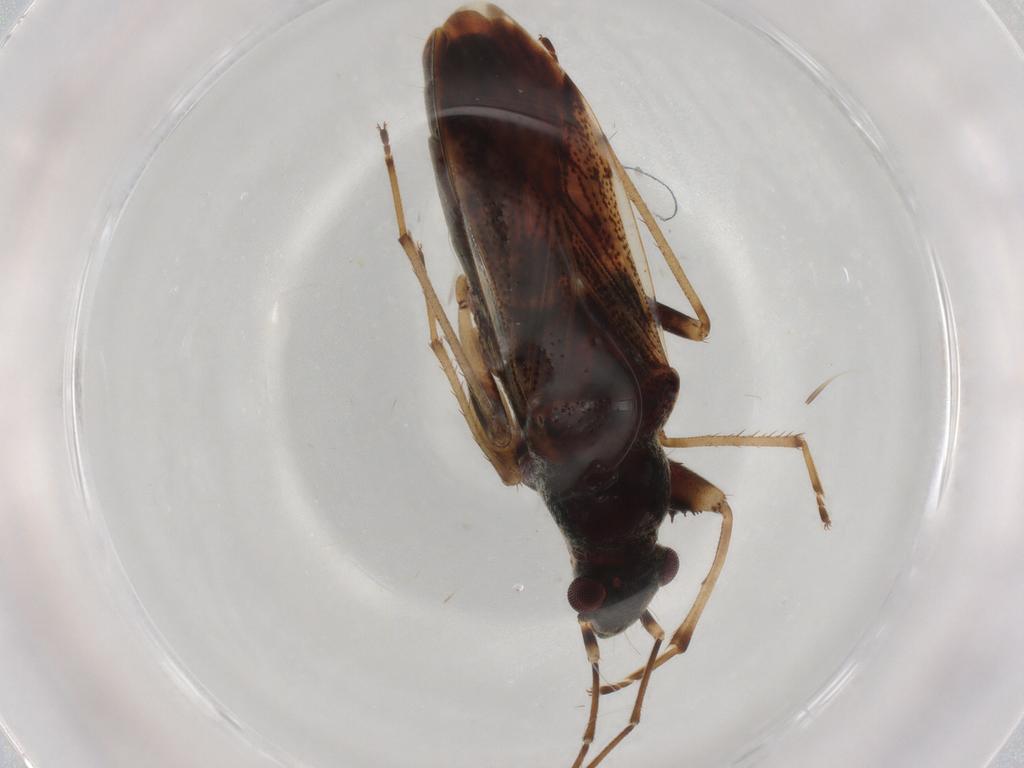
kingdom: Animalia
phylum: Arthropoda
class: Insecta
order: Hemiptera
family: Rhyparochromidae
